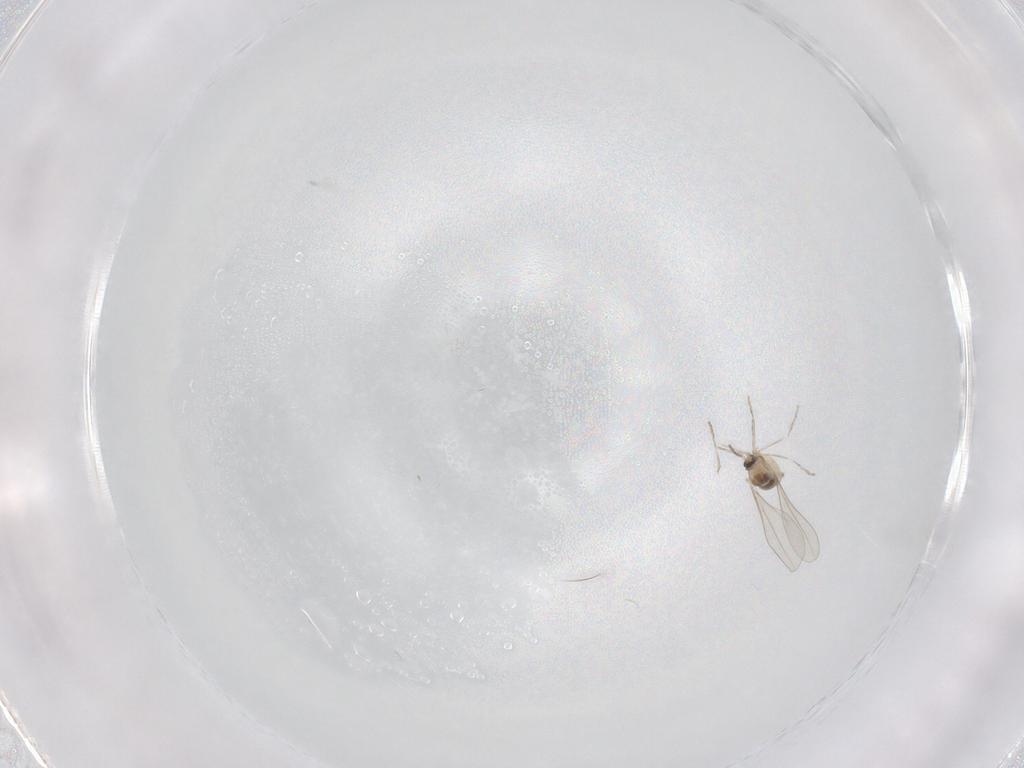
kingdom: Animalia
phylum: Arthropoda
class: Insecta
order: Diptera
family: Cecidomyiidae
